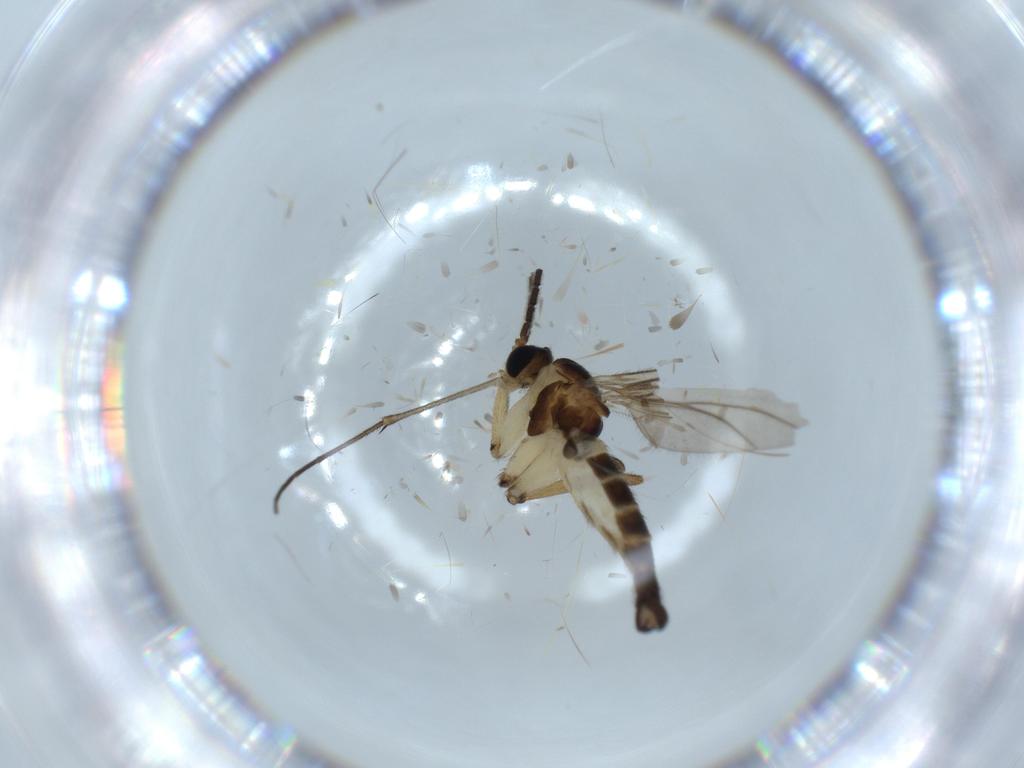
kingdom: Animalia
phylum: Arthropoda
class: Insecta
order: Diptera
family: Sciaridae
